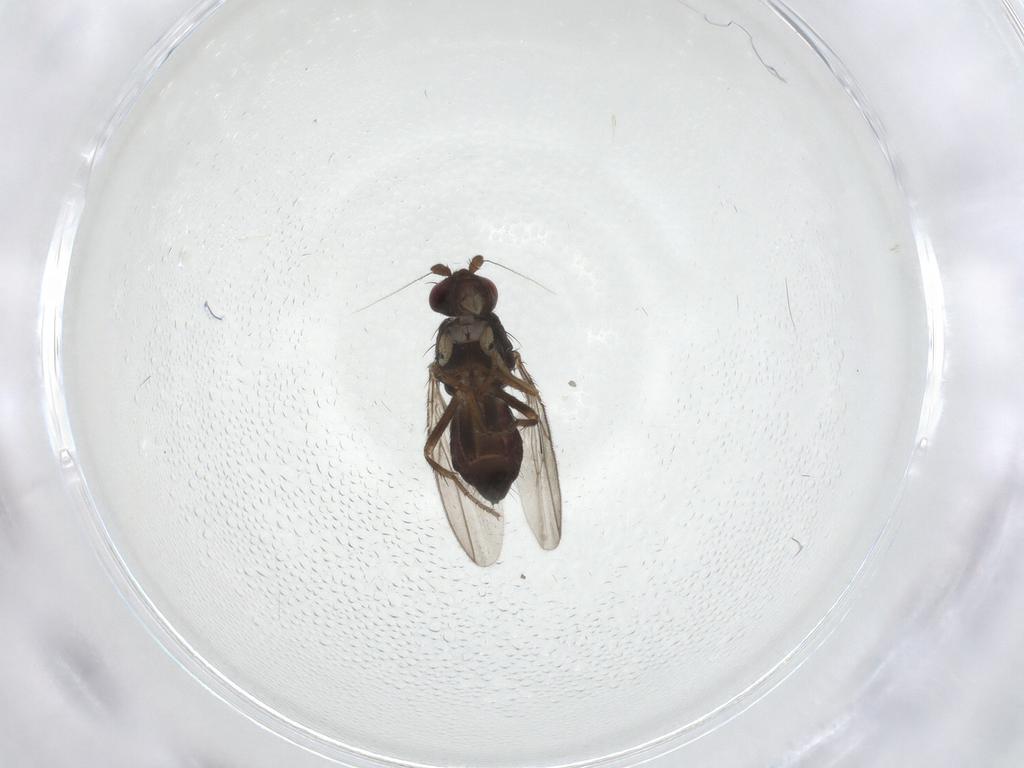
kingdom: Animalia
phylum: Arthropoda
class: Insecta
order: Diptera
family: Sphaeroceridae
